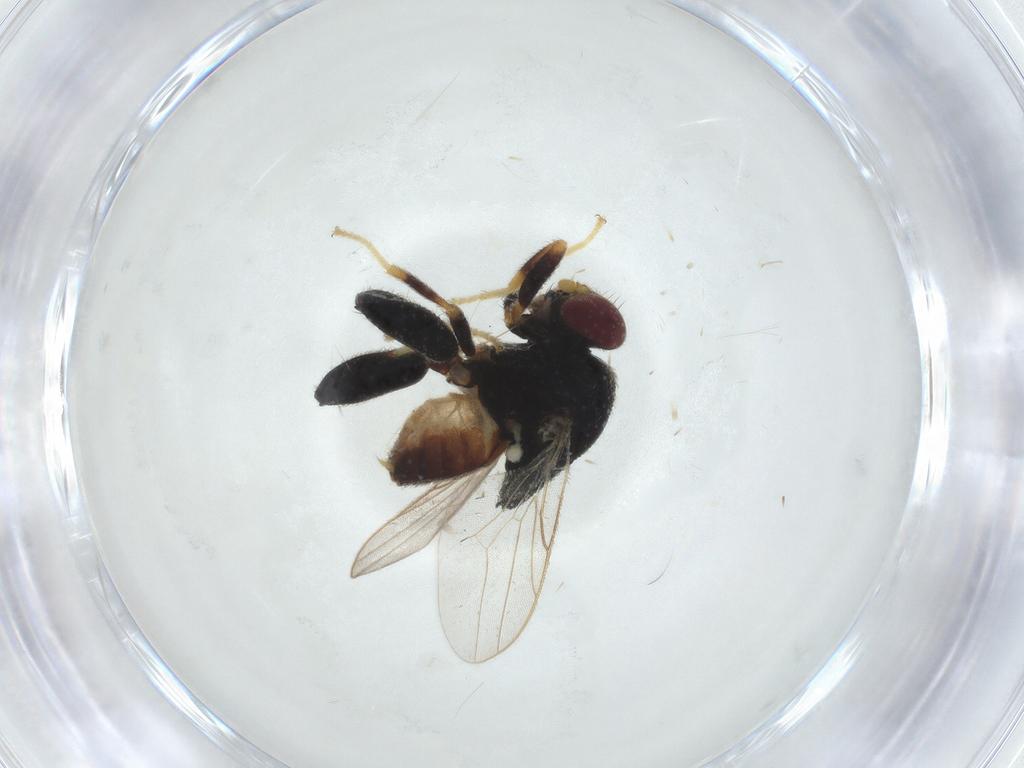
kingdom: Animalia
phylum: Arthropoda
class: Insecta
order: Diptera
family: Chloropidae
